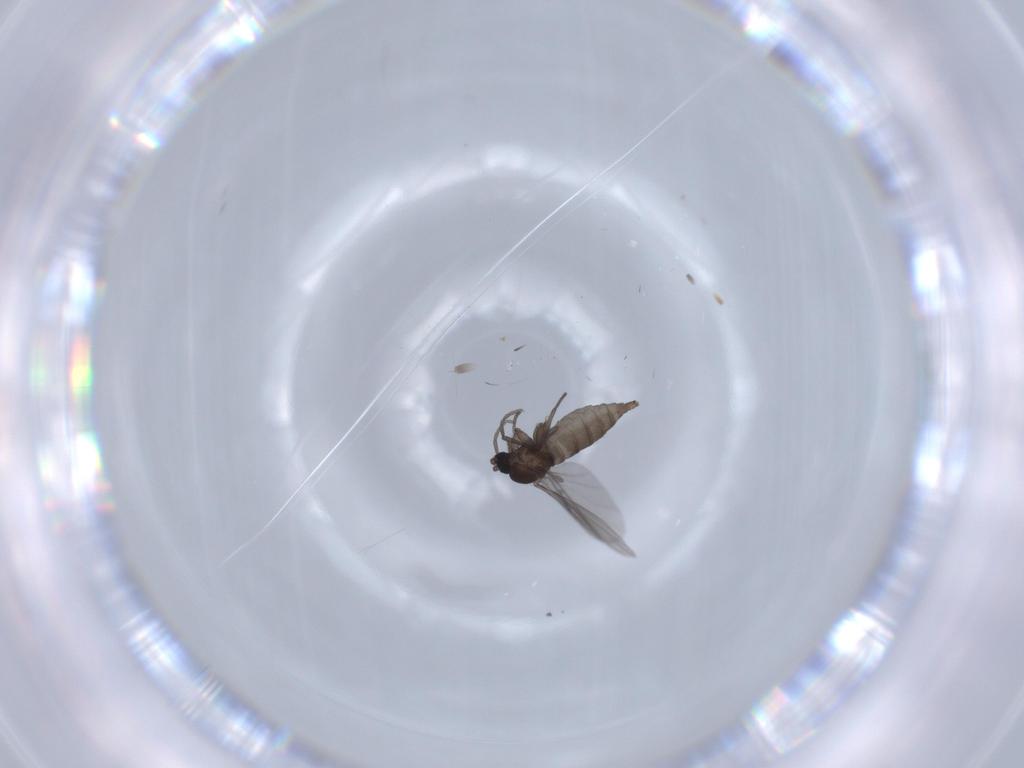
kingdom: Animalia
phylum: Arthropoda
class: Insecta
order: Diptera
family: Sciaridae
